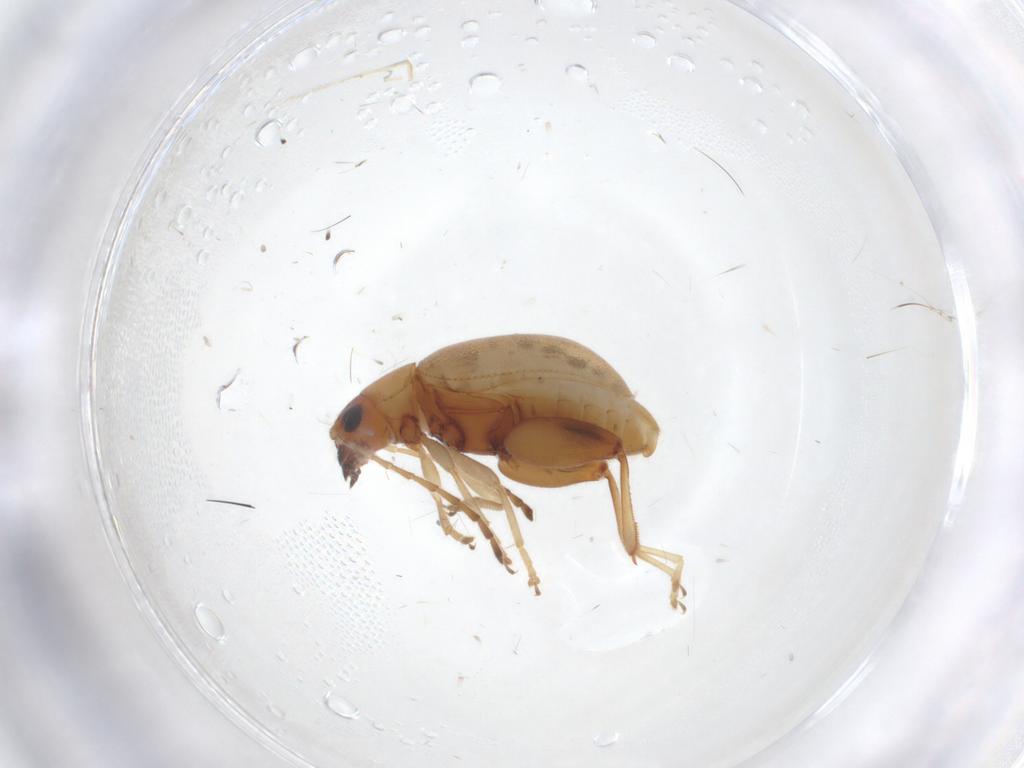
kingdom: Animalia
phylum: Arthropoda
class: Insecta
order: Coleoptera
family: Chrysomelidae
